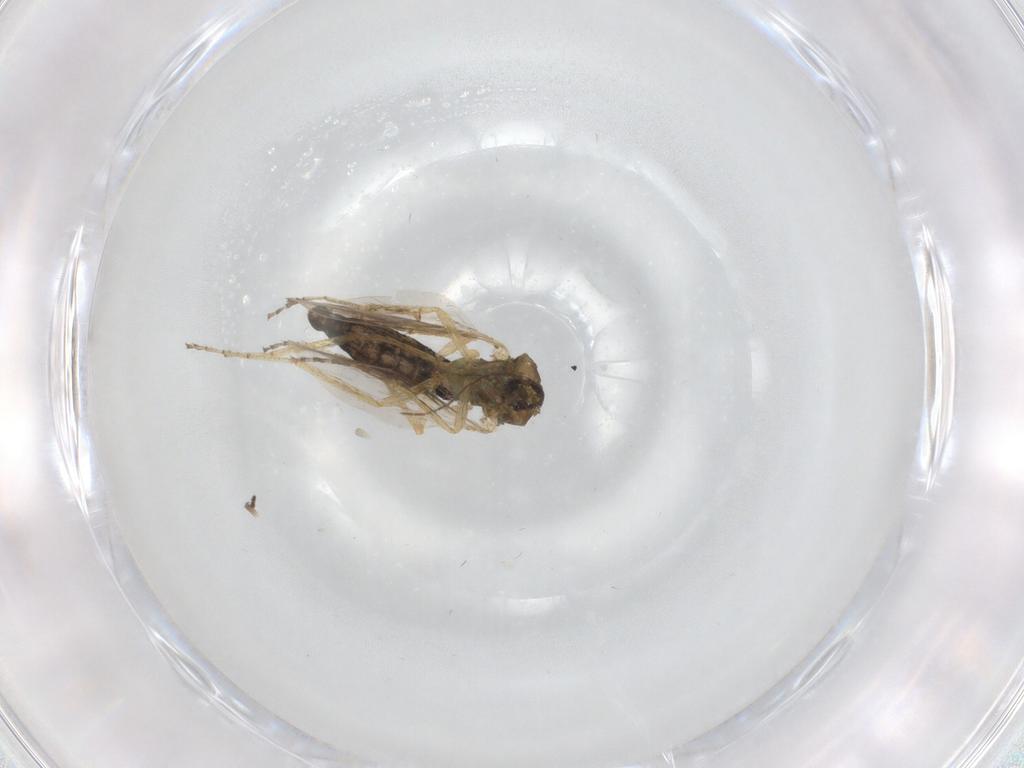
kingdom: Animalia
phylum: Arthropoda
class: Insecta
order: Diptera
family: Ceratopogonidae
